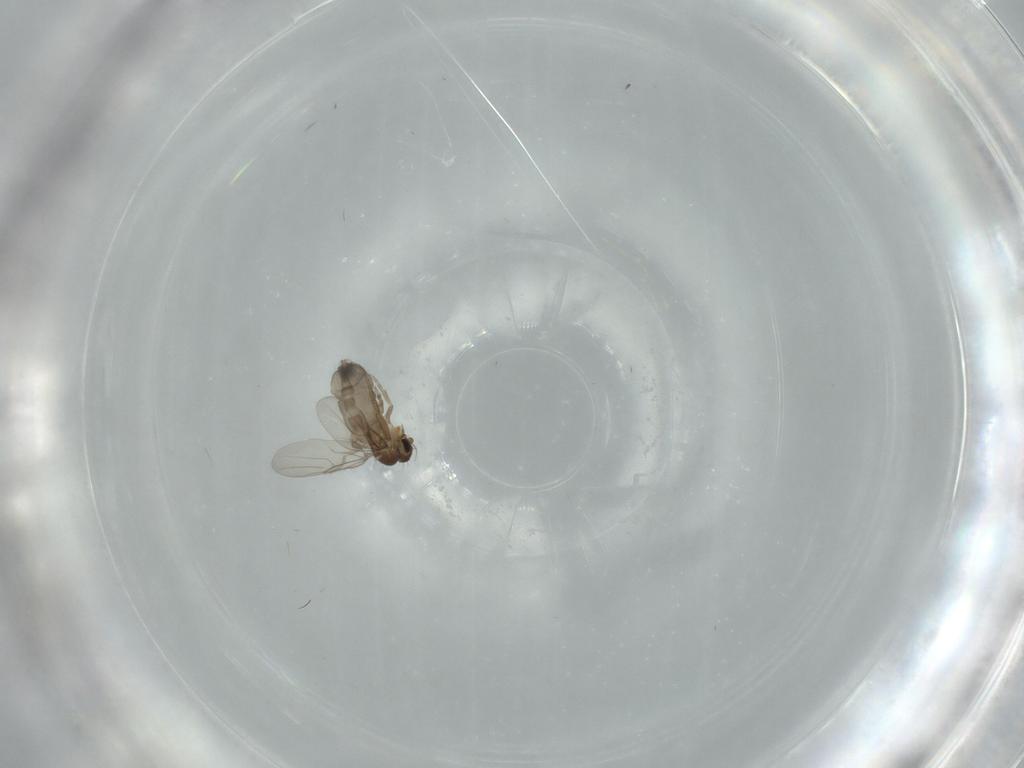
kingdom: Animalia
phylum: Arthropoda
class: Insecta
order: Diptera
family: Phoridae
